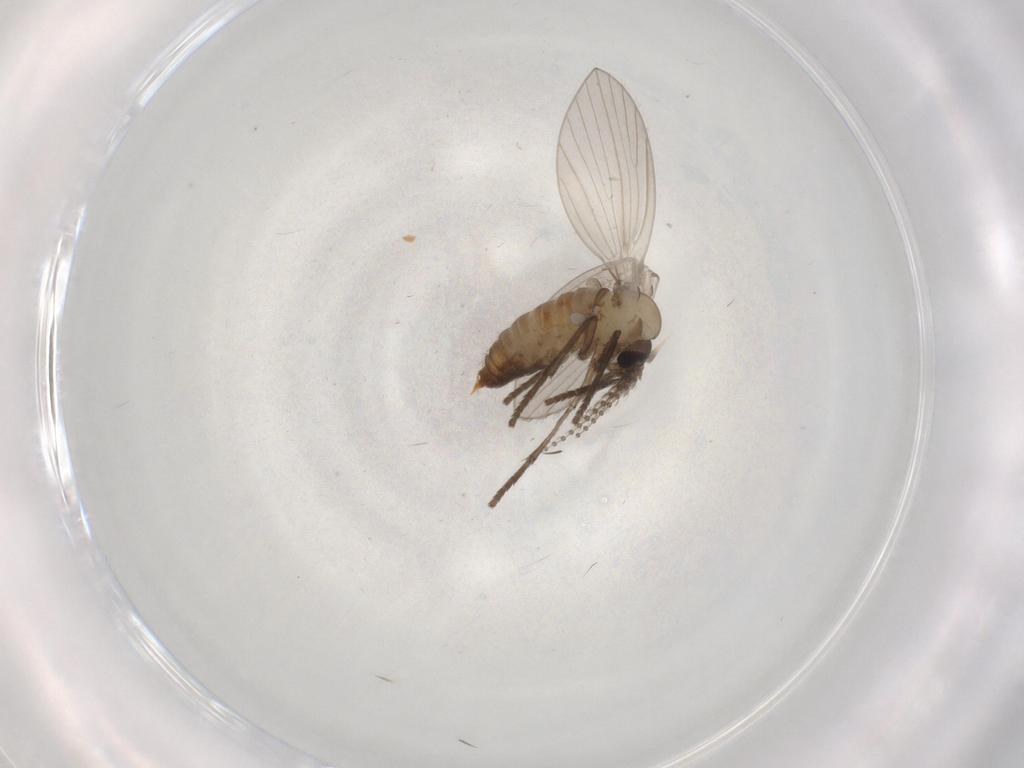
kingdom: Animalia
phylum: Arthropoda
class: Insecta
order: Diptera
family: Psychodidae
